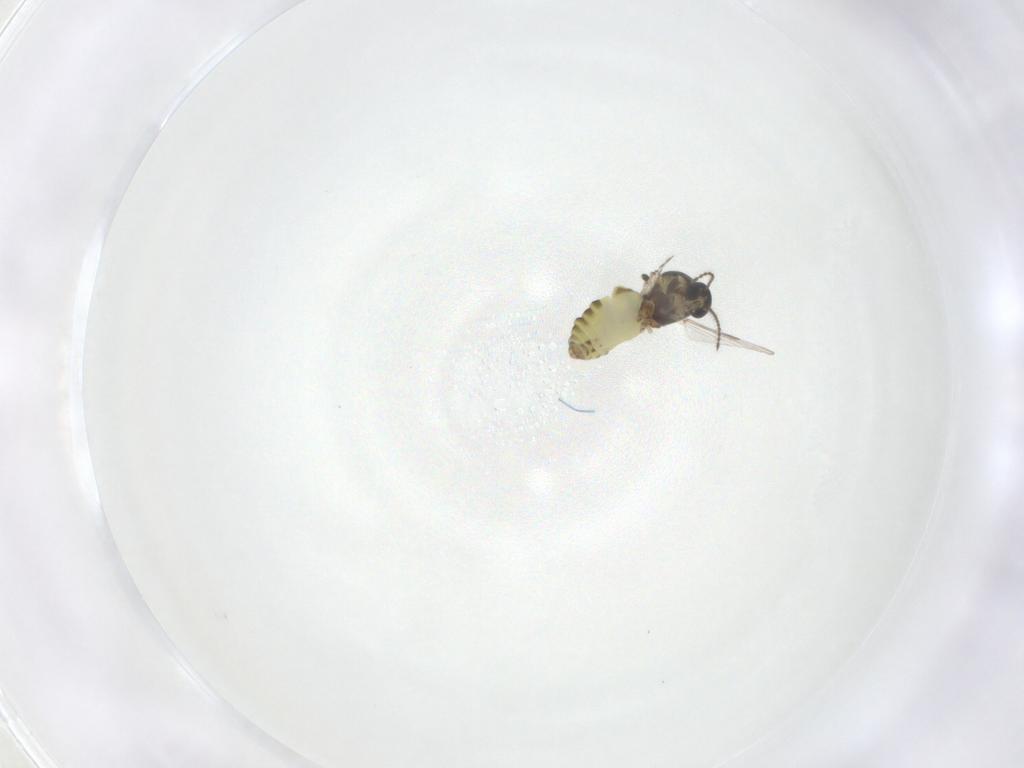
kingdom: Animalia
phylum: Arthropoda
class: Insecta
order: Diptera
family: Ceratopogonidae
